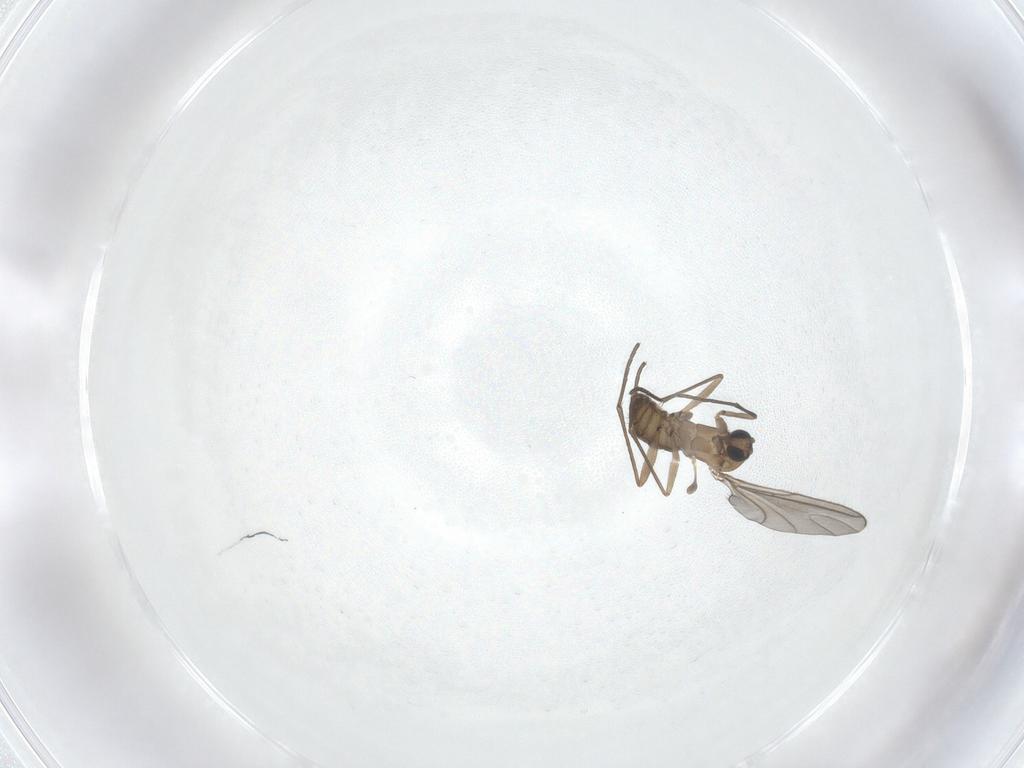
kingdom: Animalia
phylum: Arthropoda
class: Insecta
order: Diptera
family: Sciaridae
